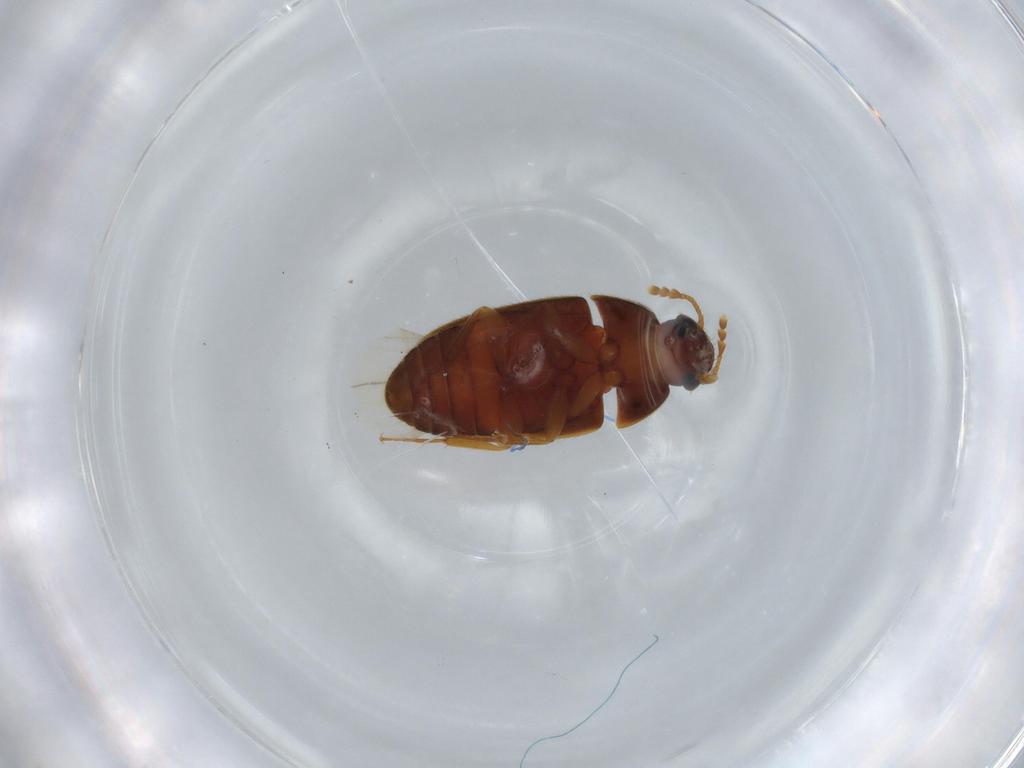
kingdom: Animalia
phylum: Arthropoda
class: Insecta
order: Coleoptera
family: Mycetophagidae
